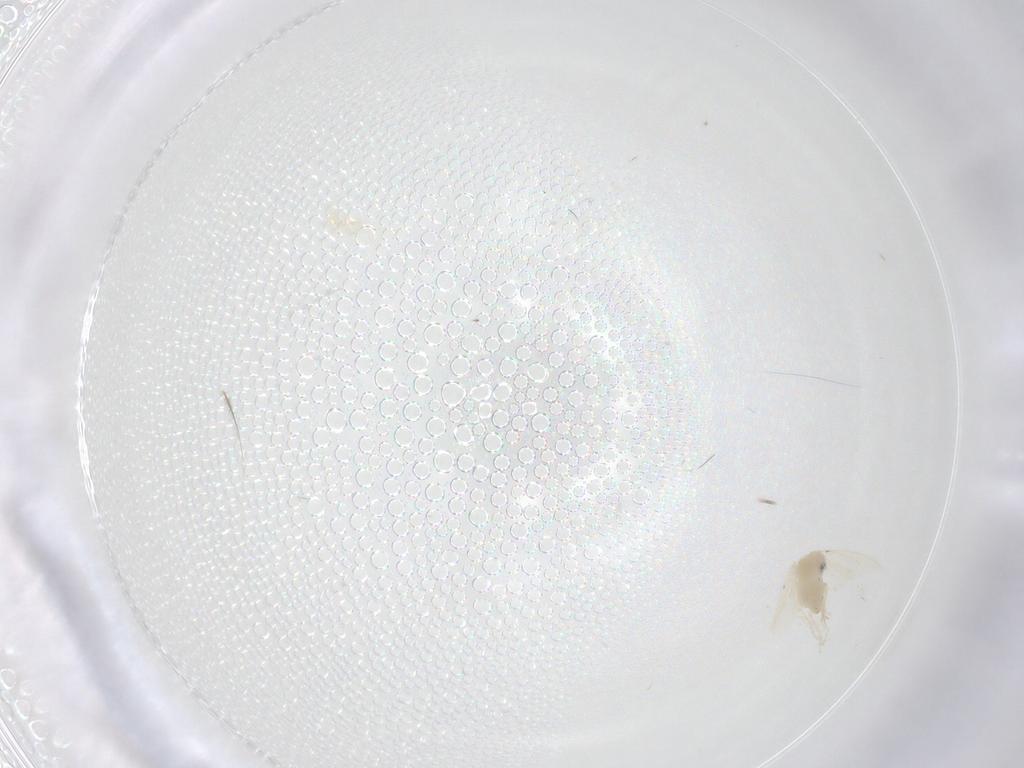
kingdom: Animalia
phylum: Arthropoda
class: Insecta
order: Hemiptera
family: Aleyrodidae
